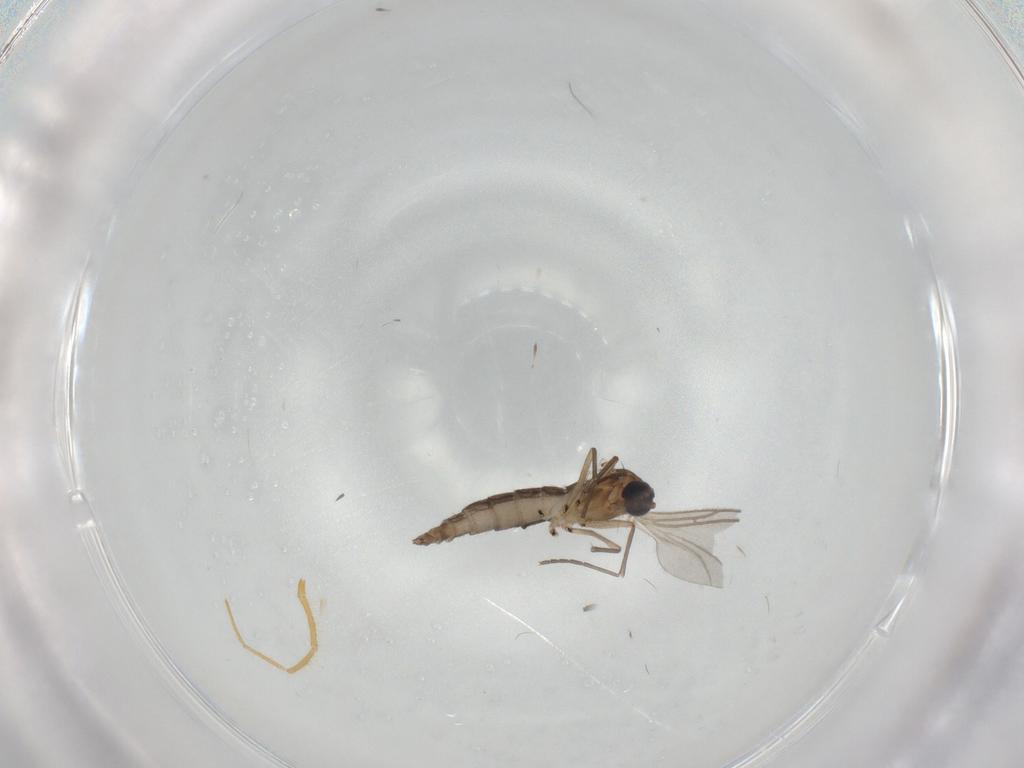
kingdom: Animalia
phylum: Arthropoda
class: Insecta
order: Diptera
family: Sciaridae
